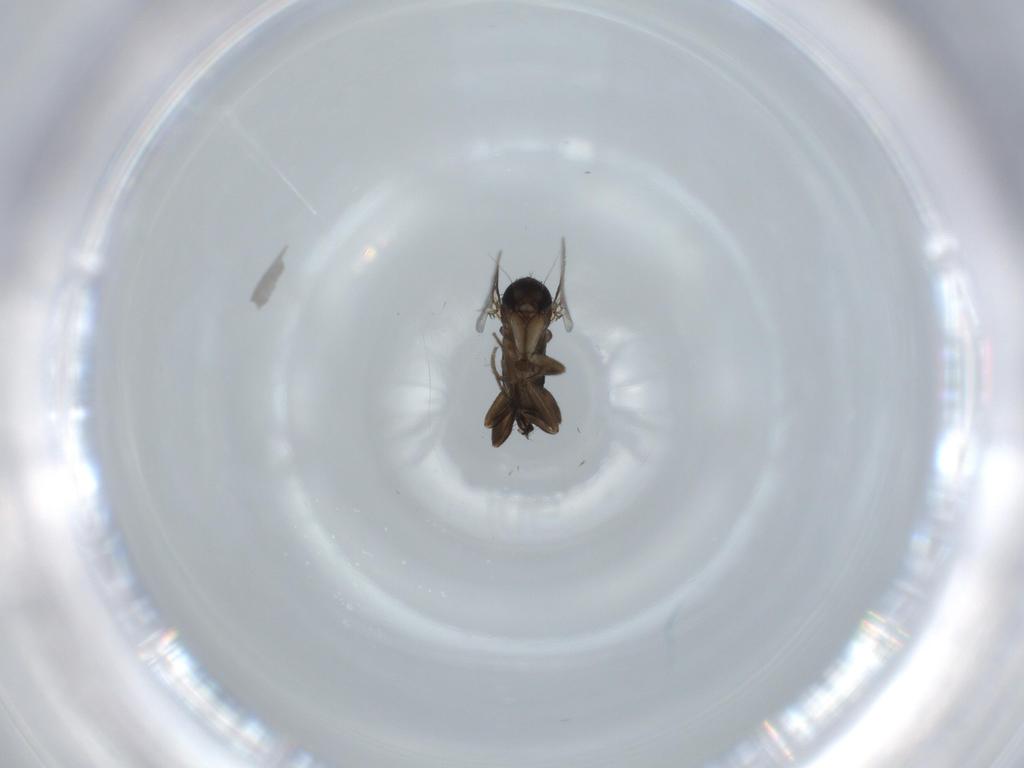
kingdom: Animalia
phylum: Arthropoda
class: Insecta
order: Diptera
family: Phoridae
